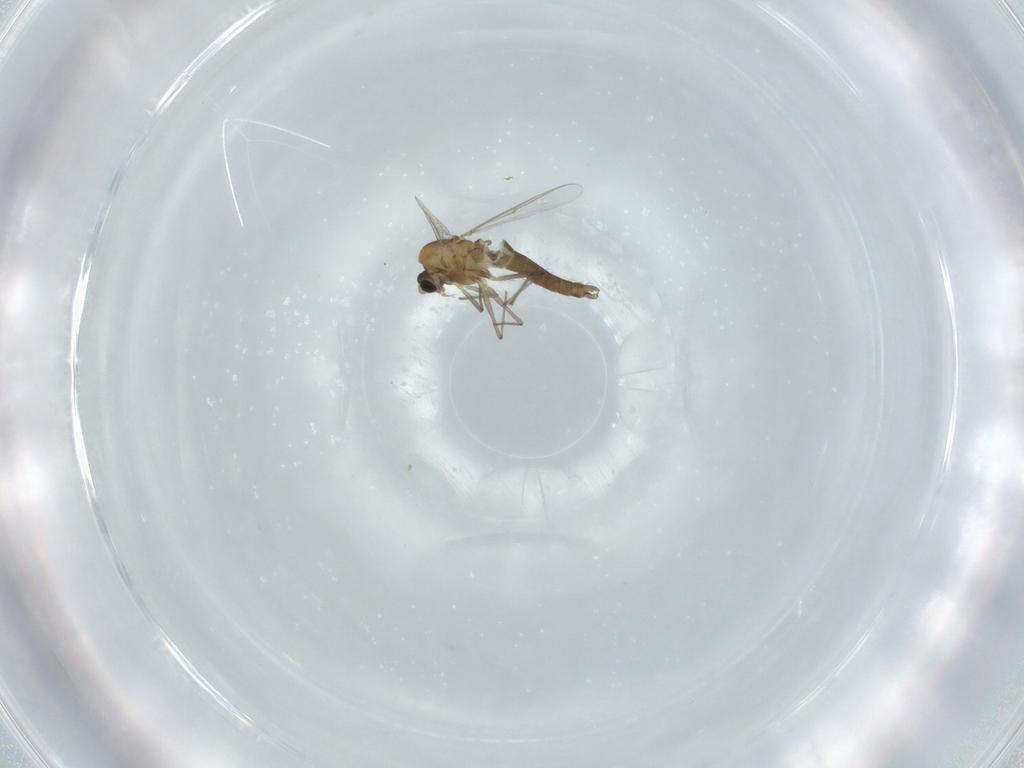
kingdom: Animalia
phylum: Arthropoda
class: Insecta
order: Diptera
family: Chironomidae
